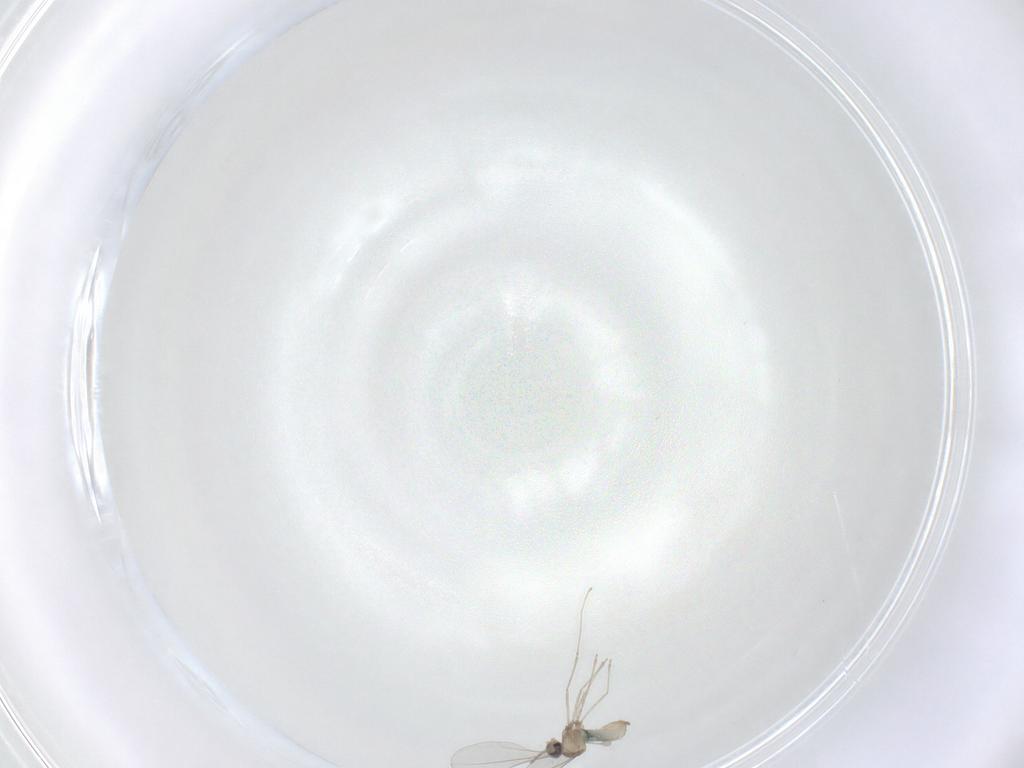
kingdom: Animalia
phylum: Arthropoda
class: Insecta
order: Diptera
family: Cecidomyiidae
